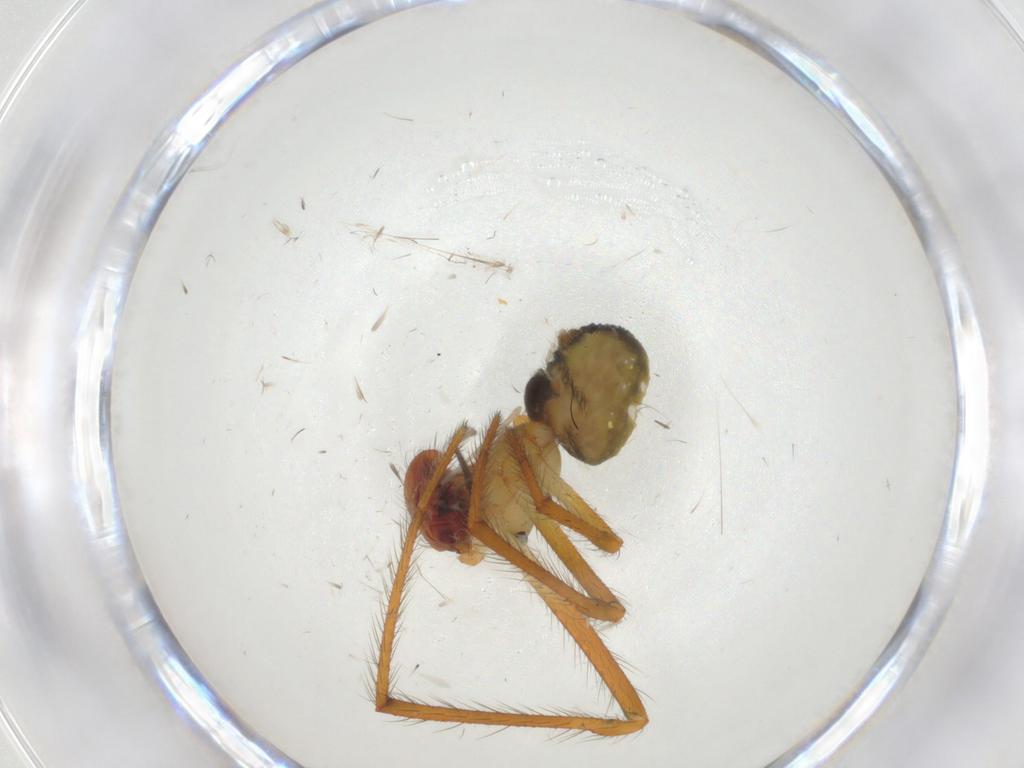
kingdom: Animalia
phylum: Arthropoda
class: Arachnida
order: Araneae
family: Theridiidae
